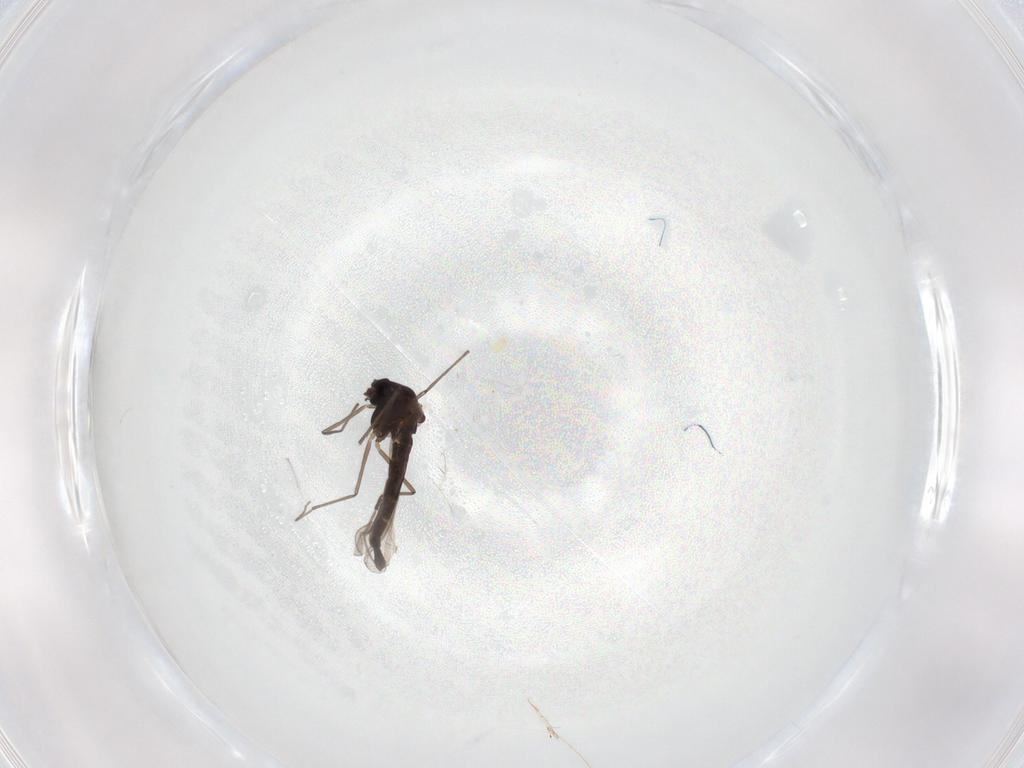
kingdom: Animalia
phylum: Arthropoda
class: Insecta
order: Diptera
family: Chironomidae
